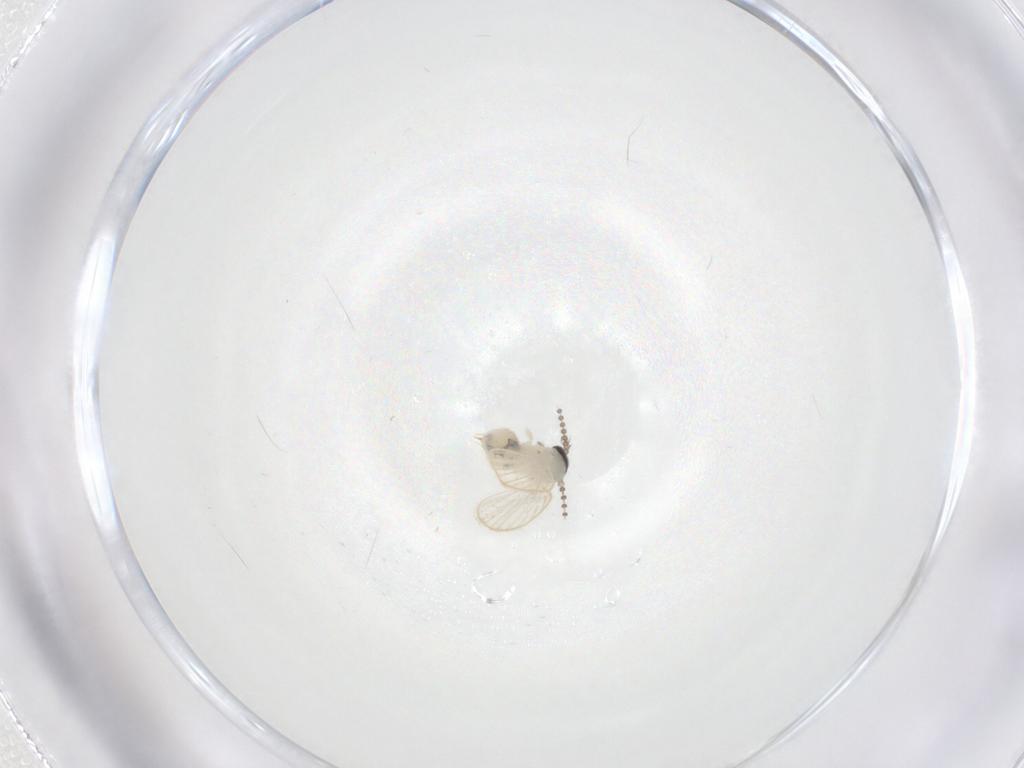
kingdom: Animalia
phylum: Arthropoda
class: Insecta
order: Diptera
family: Psychodidae
